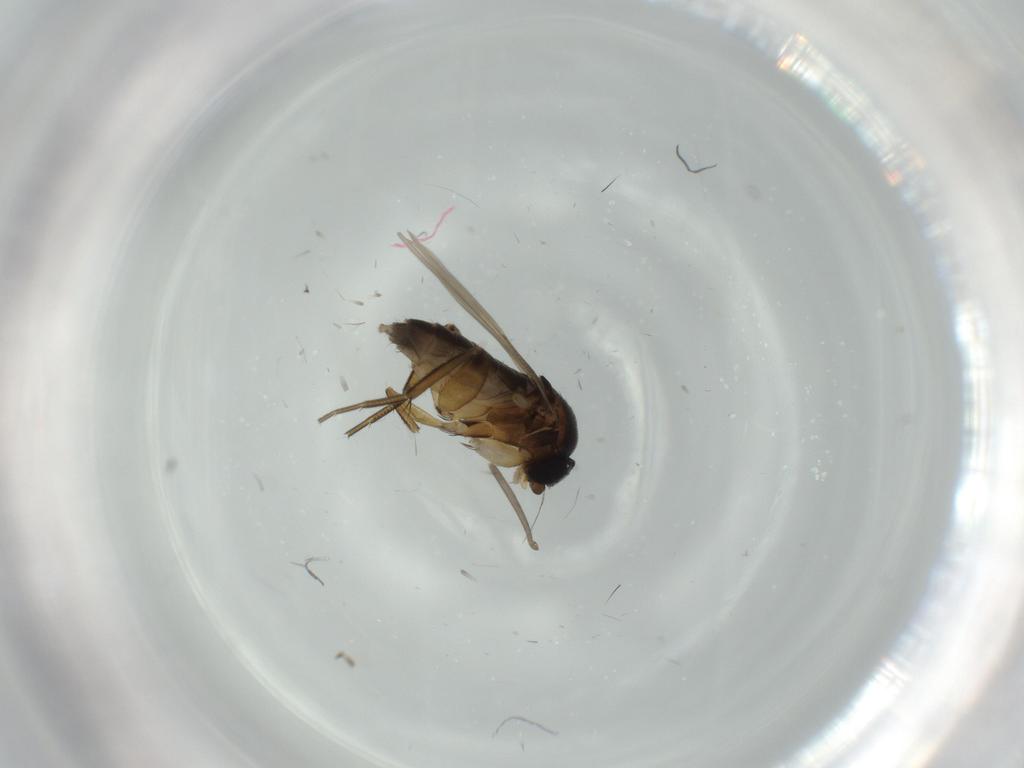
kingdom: Animalia
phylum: Arthropoda
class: Insecta
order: Diptera
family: Cecidomyiidae
